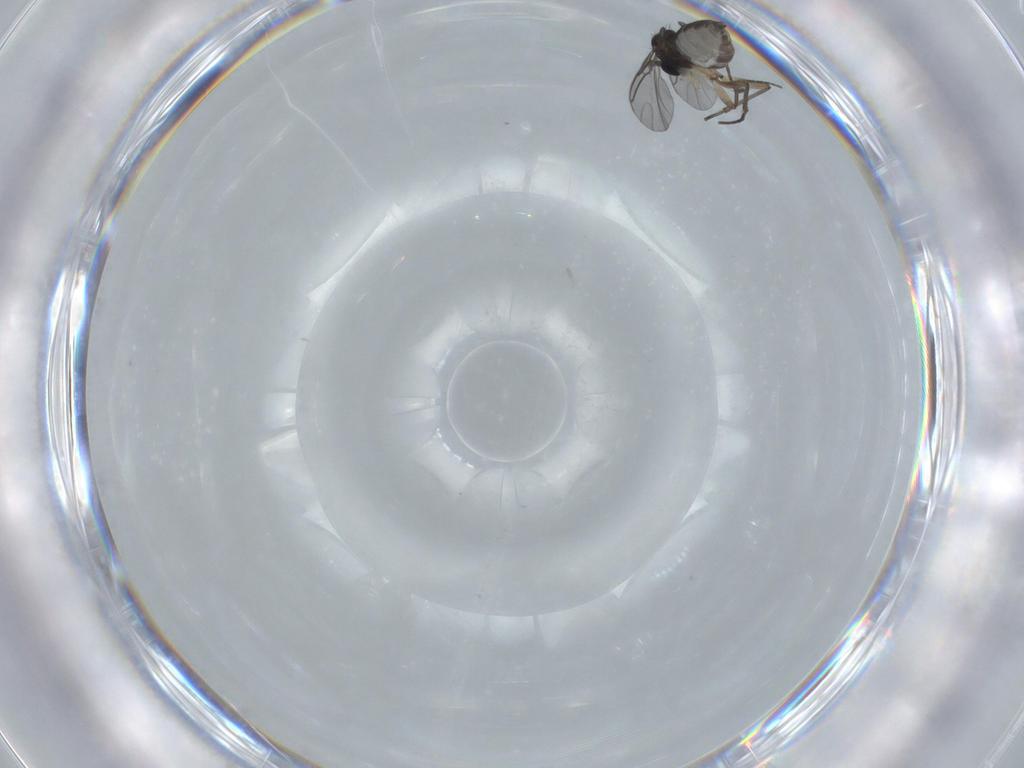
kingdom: Animalia
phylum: Arthropoda
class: Insecta
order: Diptera
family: Sciaridae
